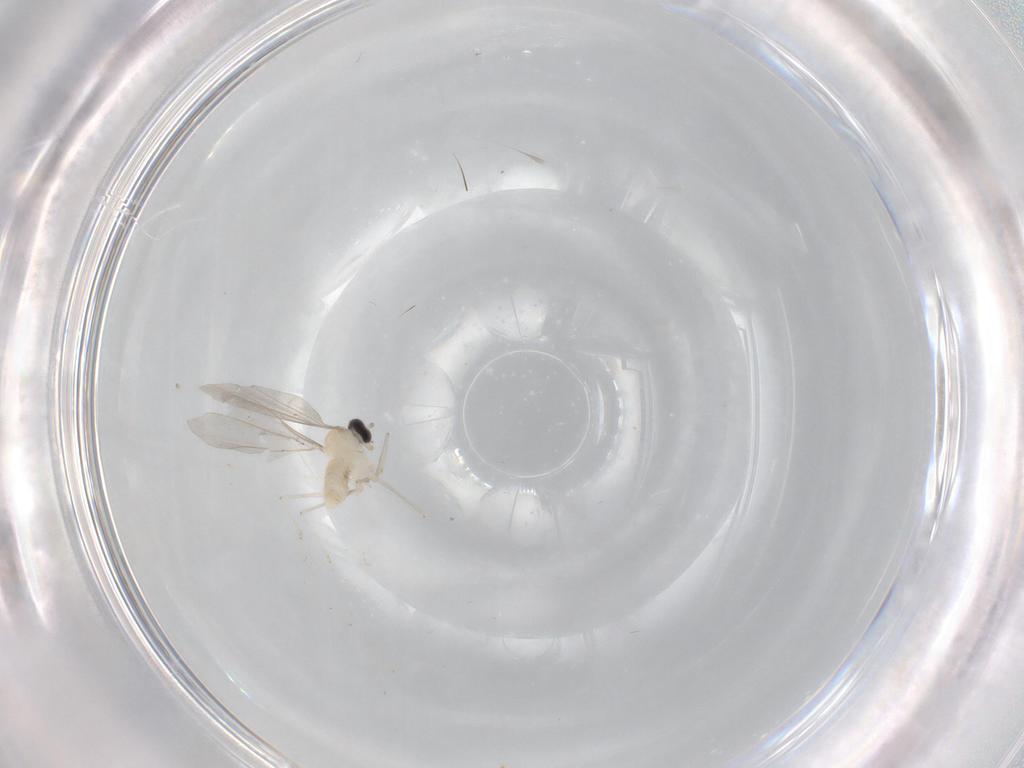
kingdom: Animalia
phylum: Arthropoda
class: Insecta
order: Diptera
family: Cecidomyiidae
